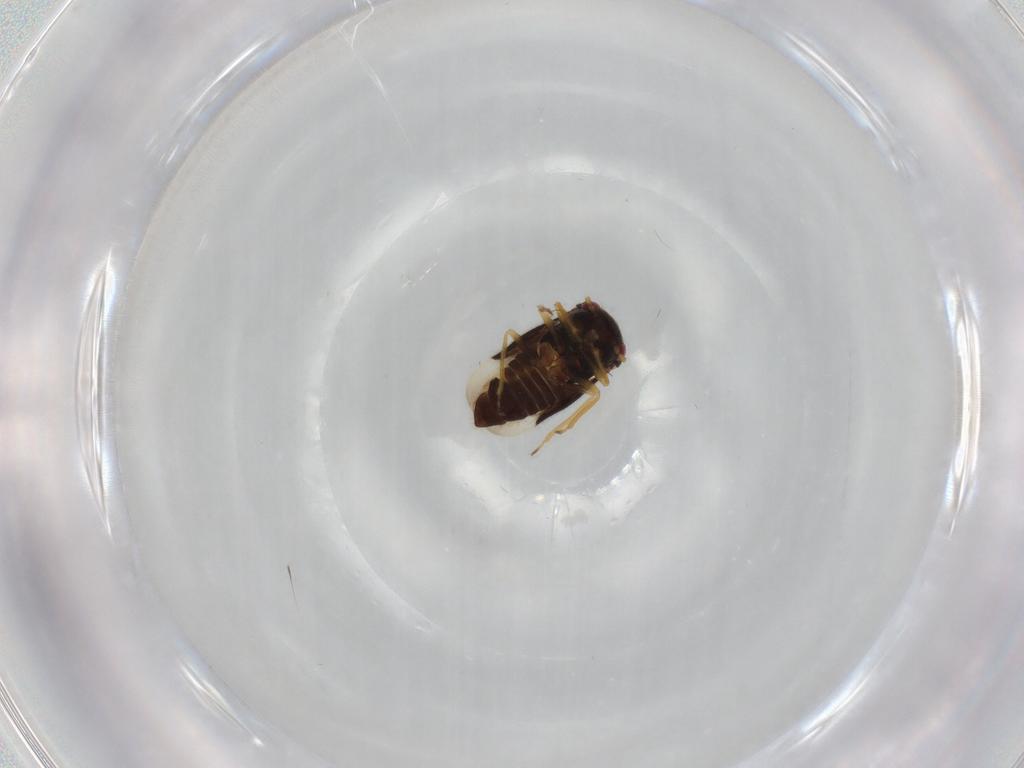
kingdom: Animalia
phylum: Arthropoda
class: Insecta
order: Hemiptera
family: Schizopteridae
